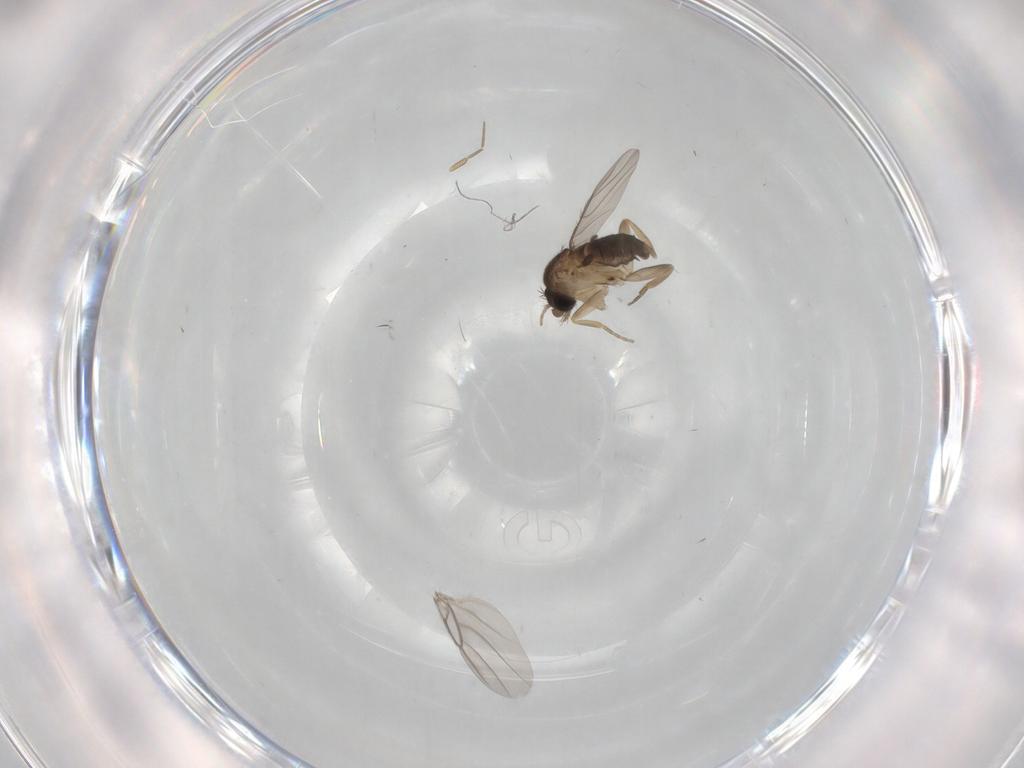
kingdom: Animalia
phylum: Arthropoda
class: Insecta
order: Diptera
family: Phoridae
